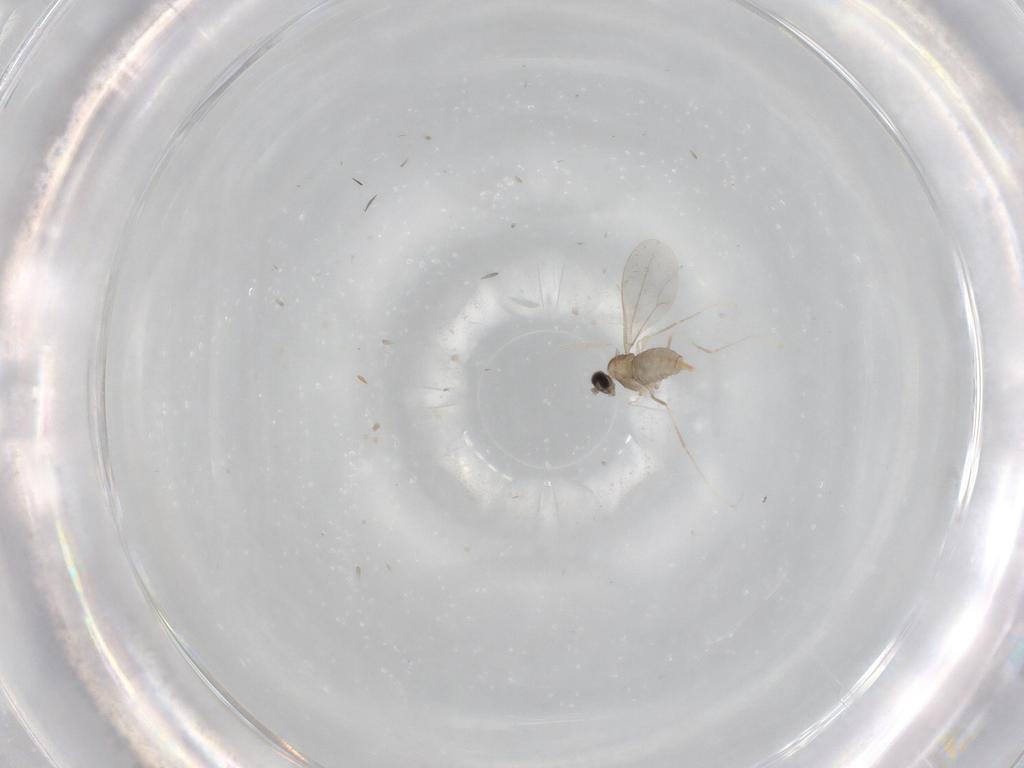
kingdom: Animalia
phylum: Arthropoda
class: Insecta
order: Diptera
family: Cecidomyiidae
